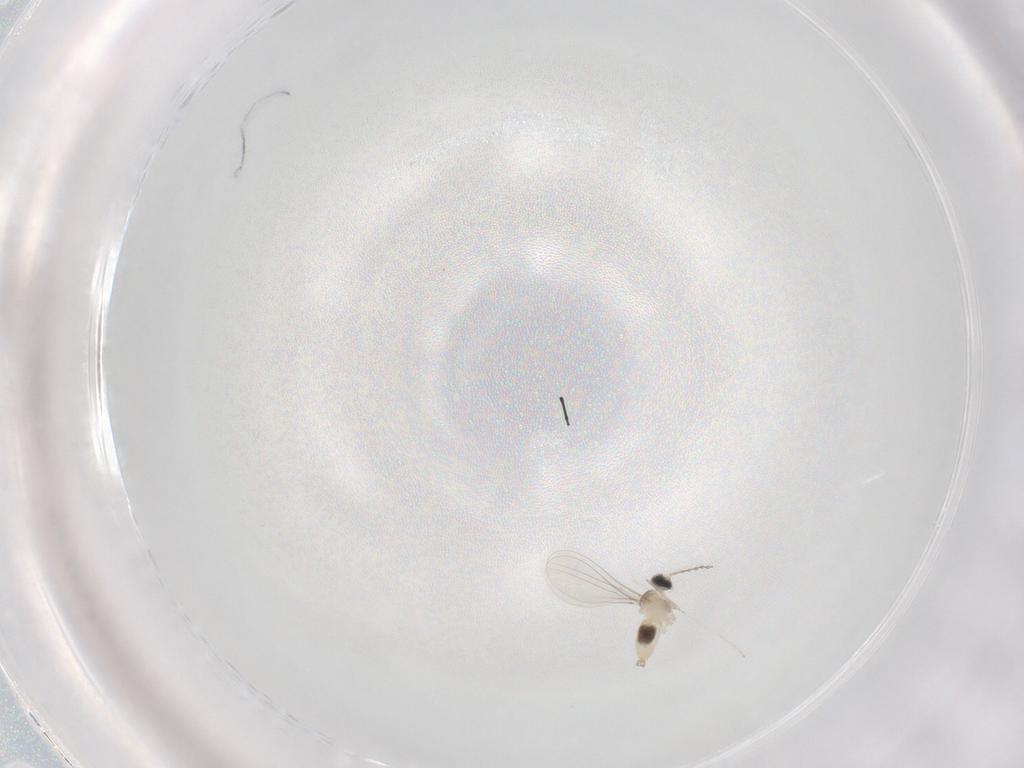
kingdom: Animalia
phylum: Arthropoda
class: Insecta
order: Diptera
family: Cecidomyiidae
